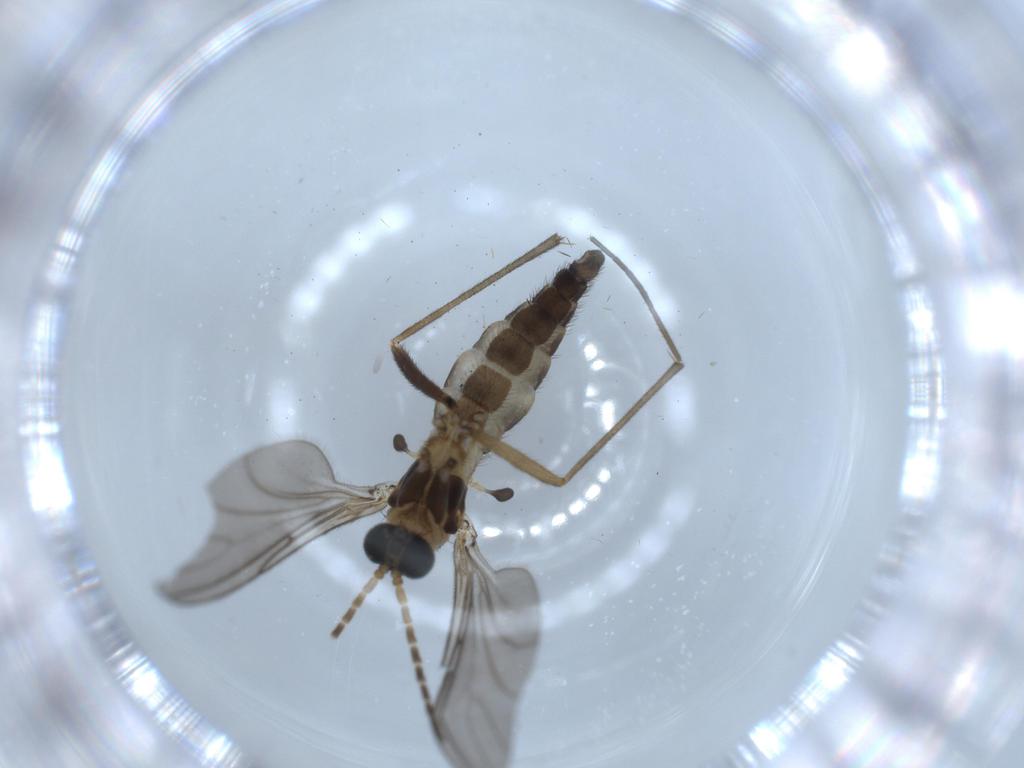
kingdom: Animalia
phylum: Arthropoda
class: Insecta
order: Diptera
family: Sciaridae
